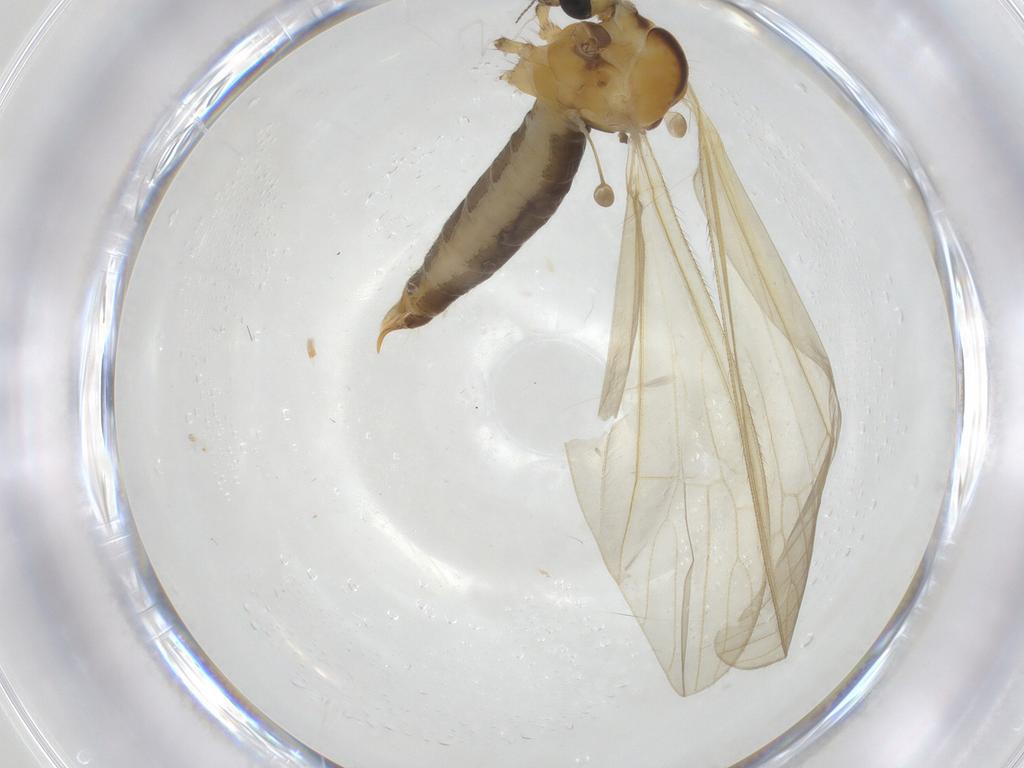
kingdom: Animalia
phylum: Arthropoda
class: Insecta
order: Diptera
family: Limoniidae
